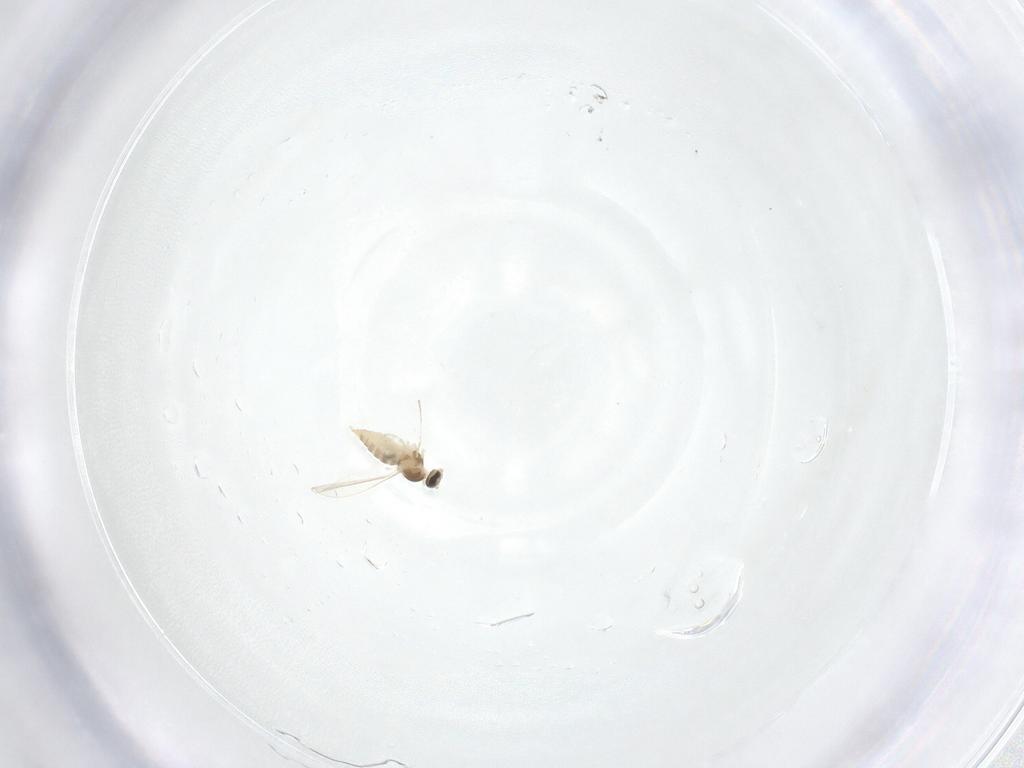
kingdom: Animalia
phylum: Arthropoda
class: Insecta
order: Diptera
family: Cecidomyiidae
